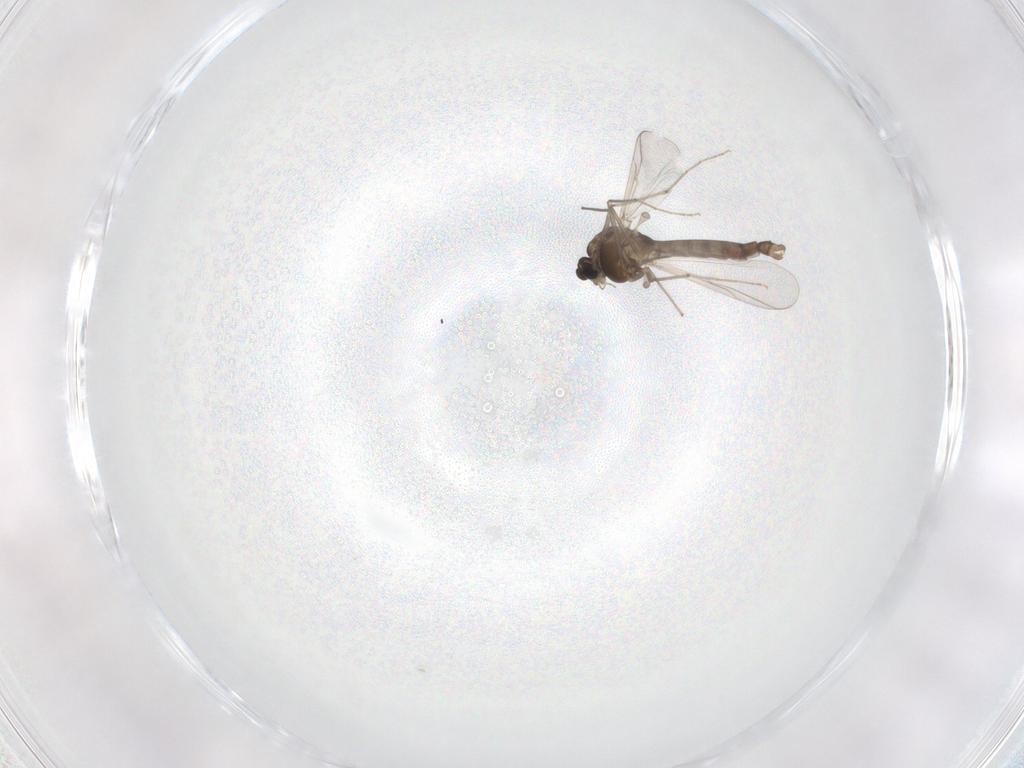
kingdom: Animalia
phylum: Arthropoda
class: Insecta
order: Diptera
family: Chironomidae
